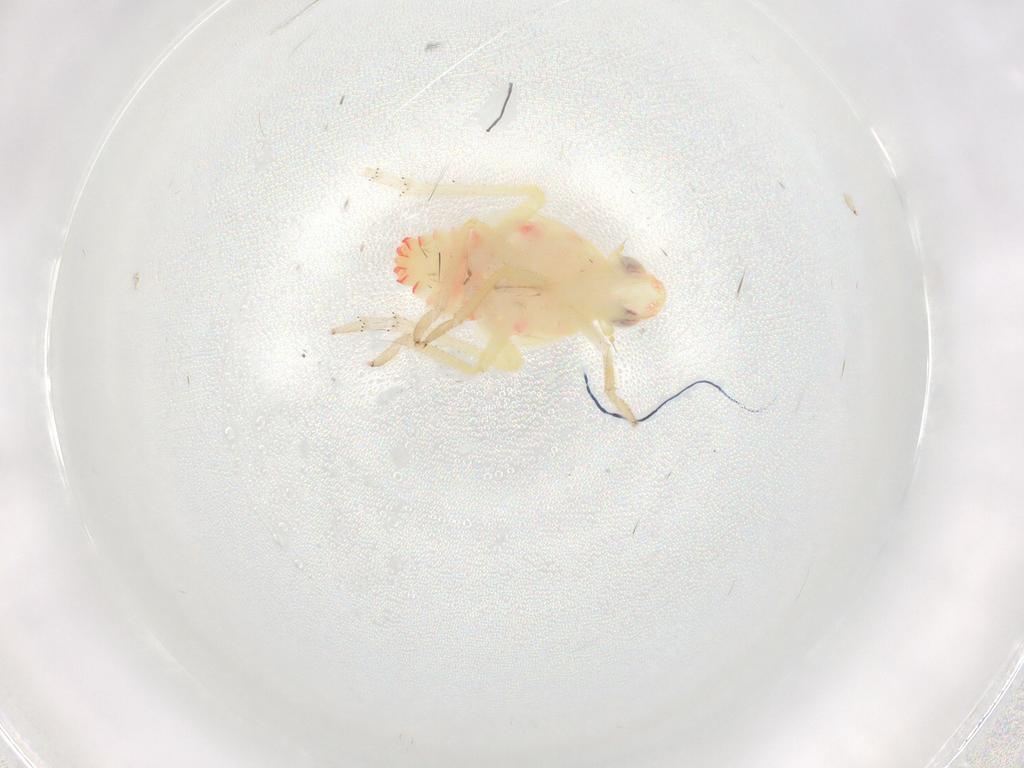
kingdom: Animalia
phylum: Arthropoda
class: Insecta
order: Hemiptera
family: Tropiduchidae
